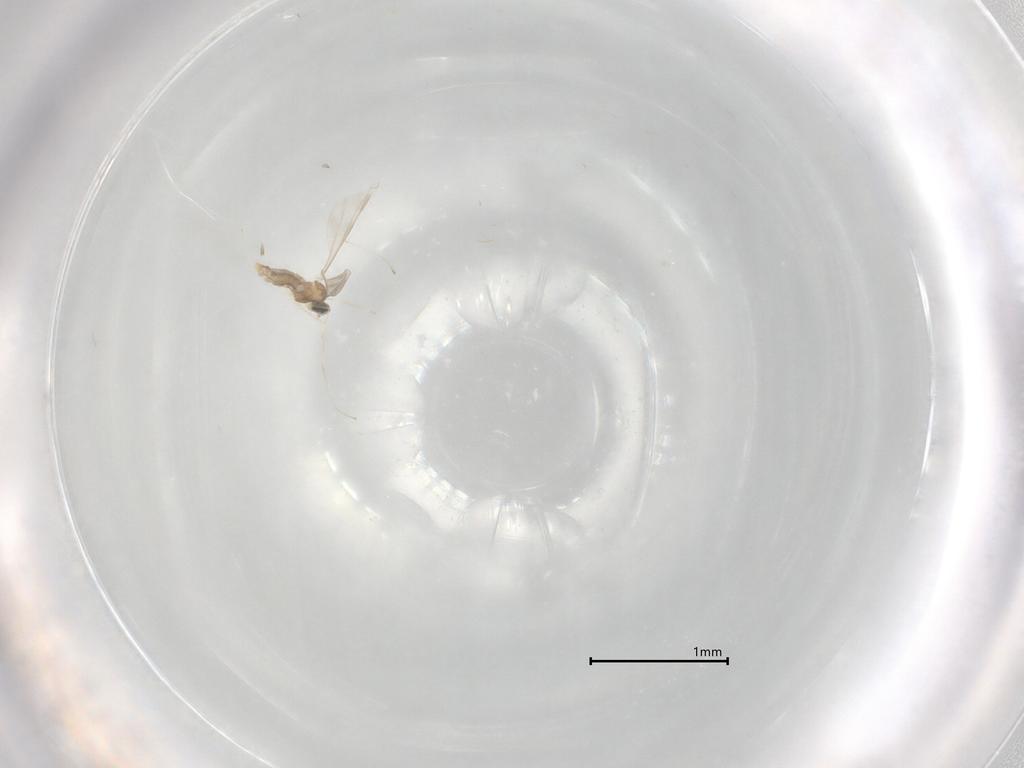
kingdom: Animalia
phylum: Arthropoda
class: Insecta
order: Diptera
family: Cecidomyiidae
